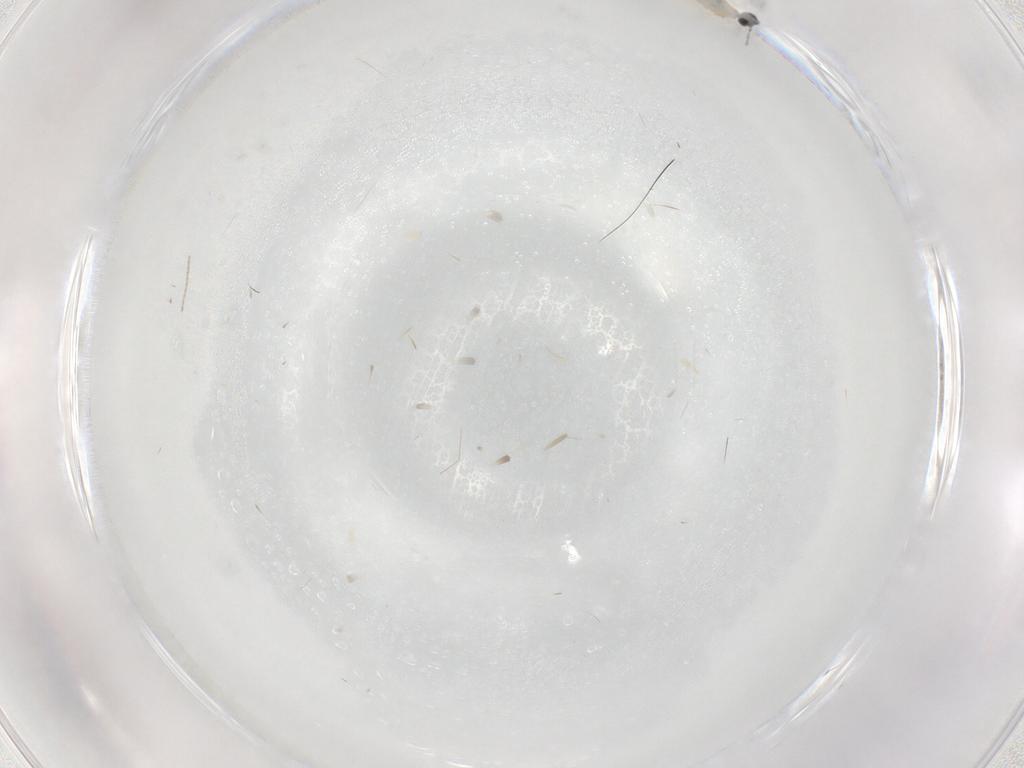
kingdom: Animalia
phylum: Arthropoda
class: Insecta
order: Diptera
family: Cecidomyiidae
